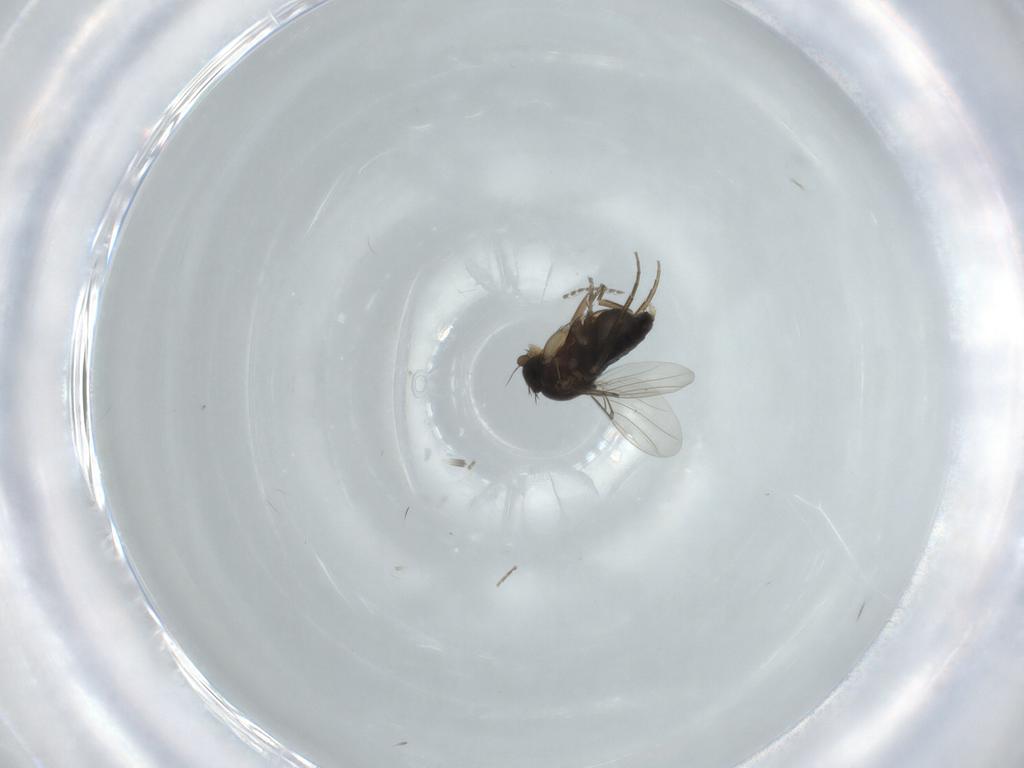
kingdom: Animalia
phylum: Arthropoda
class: Insecta
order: Diptera
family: Phoridae
